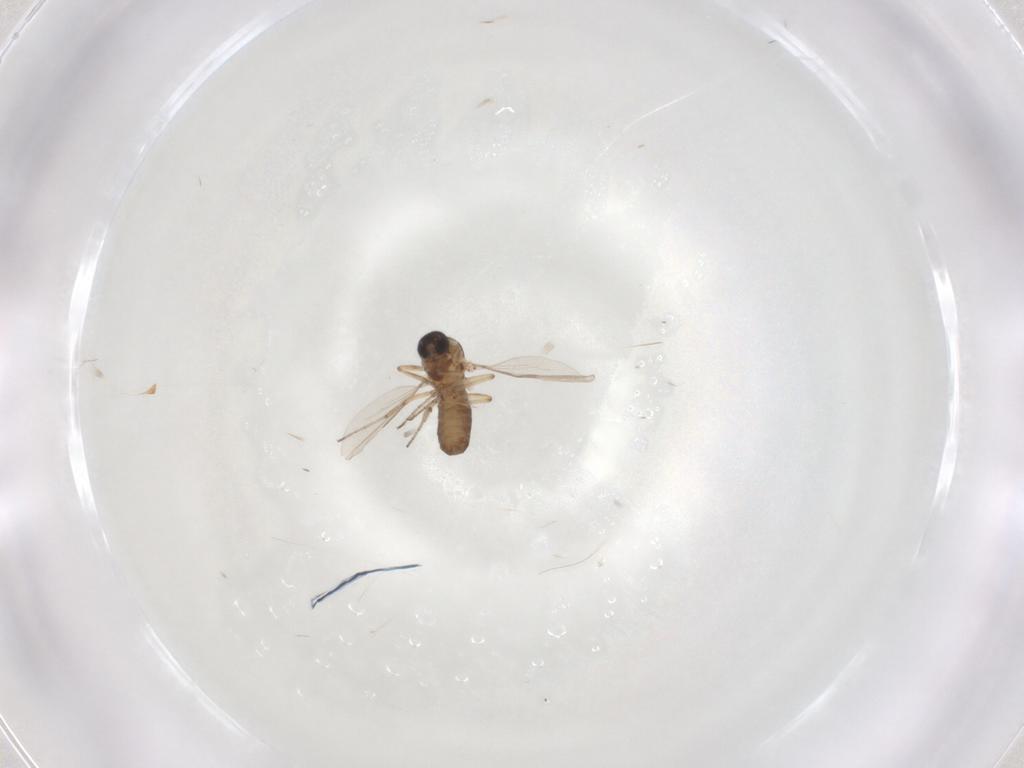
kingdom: Animalia
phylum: Arthropoda
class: Insecta
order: Diptera
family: Ceratopogonidae
